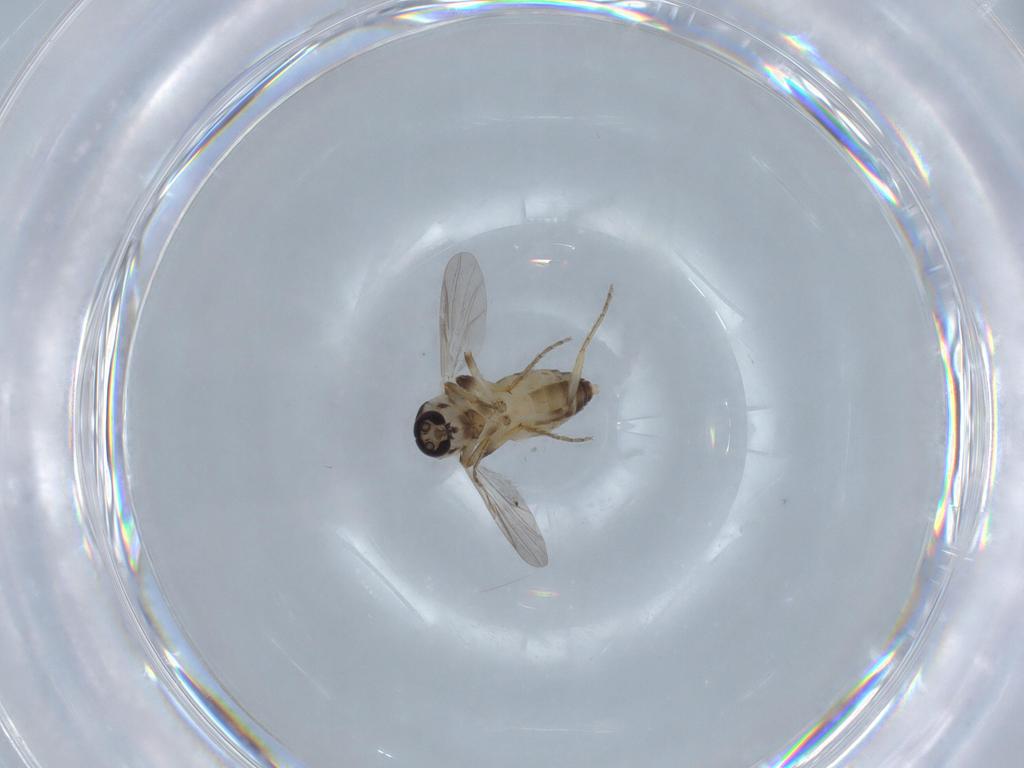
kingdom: Animalia
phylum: Arthropoda
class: Insecta
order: Diptera
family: Ceratopogonidae
